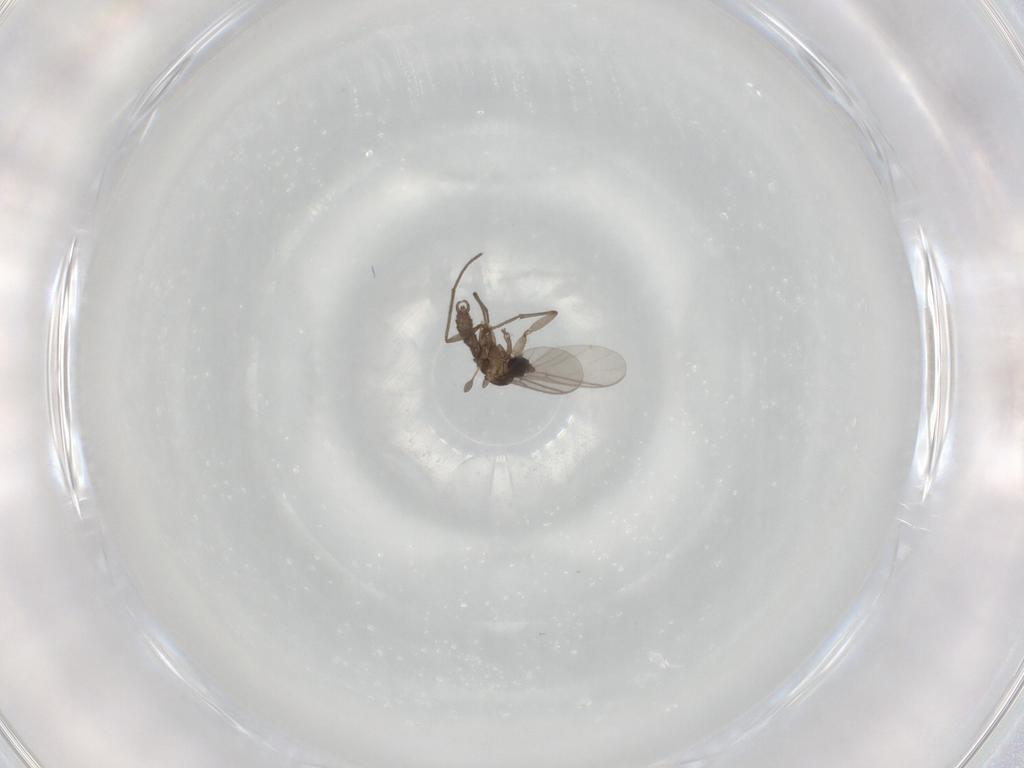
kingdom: Animalia
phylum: Arthropoda
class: Insecta
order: Diptera
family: Sciaridae
